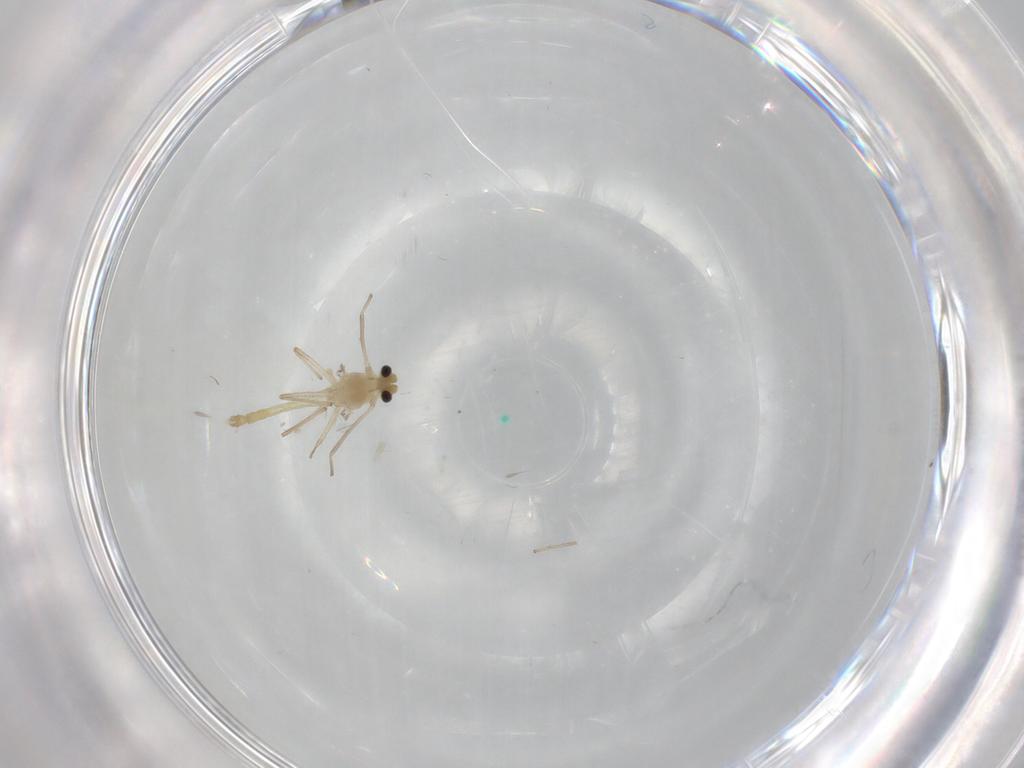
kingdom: Animalia
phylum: Arthropoda
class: Insecta
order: Diptera
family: Chironomidae
